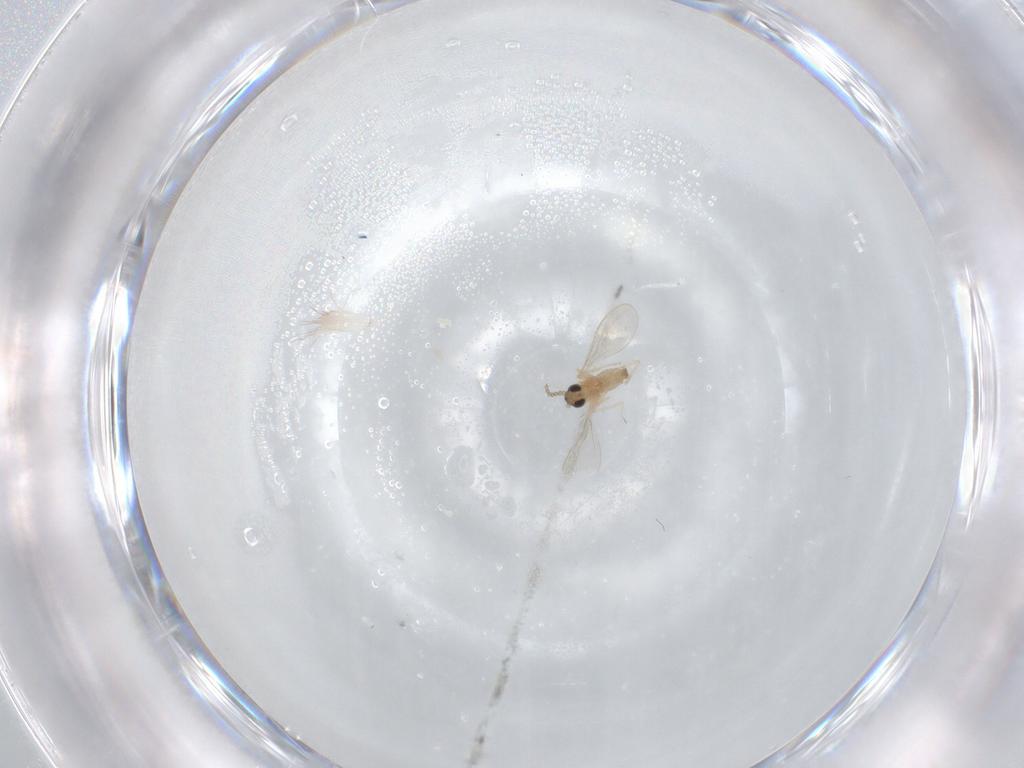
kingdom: Animalia
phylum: Arthropoda
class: Insecta
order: Diptera
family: Cecidomyiidae
